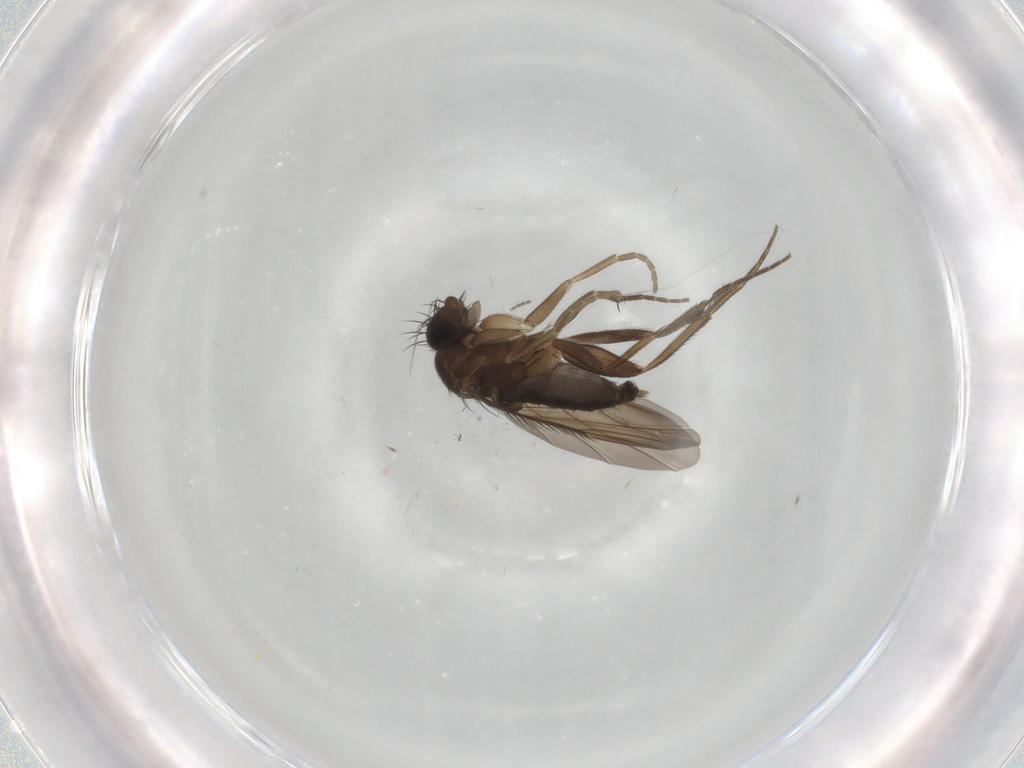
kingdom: Animalia
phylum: Arthropoda
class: Insecta
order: Diptera
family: Phoridae
